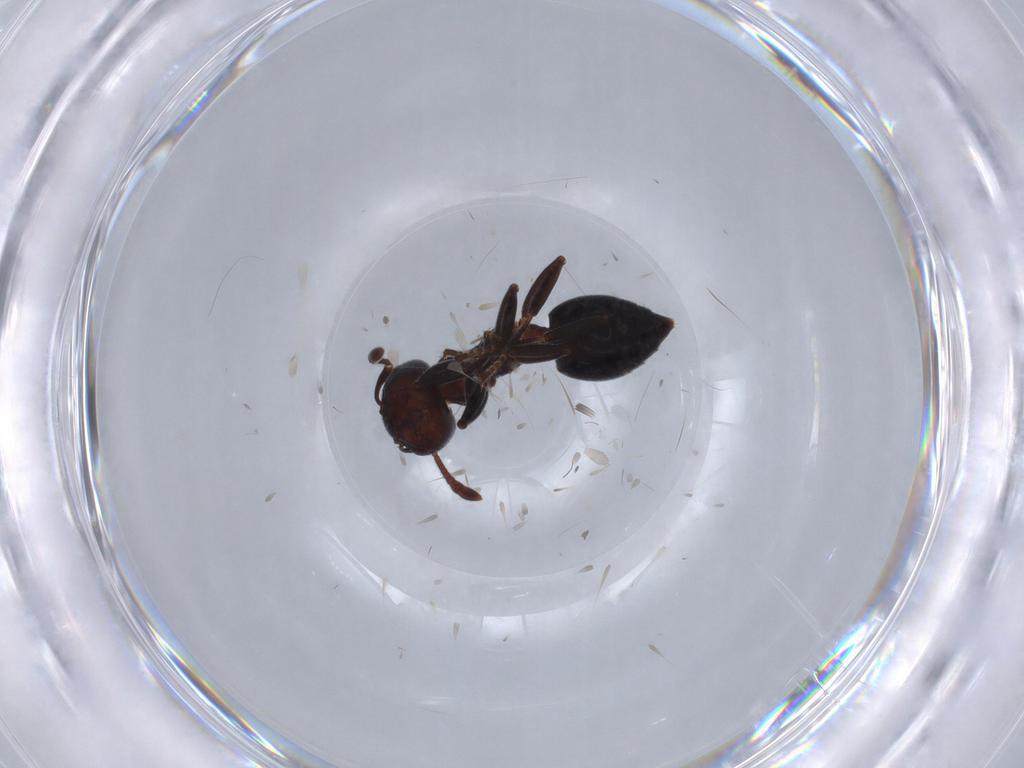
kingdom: Animalia
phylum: Arthropoda
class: Insecta
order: Hymenoptera
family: Formicidae
